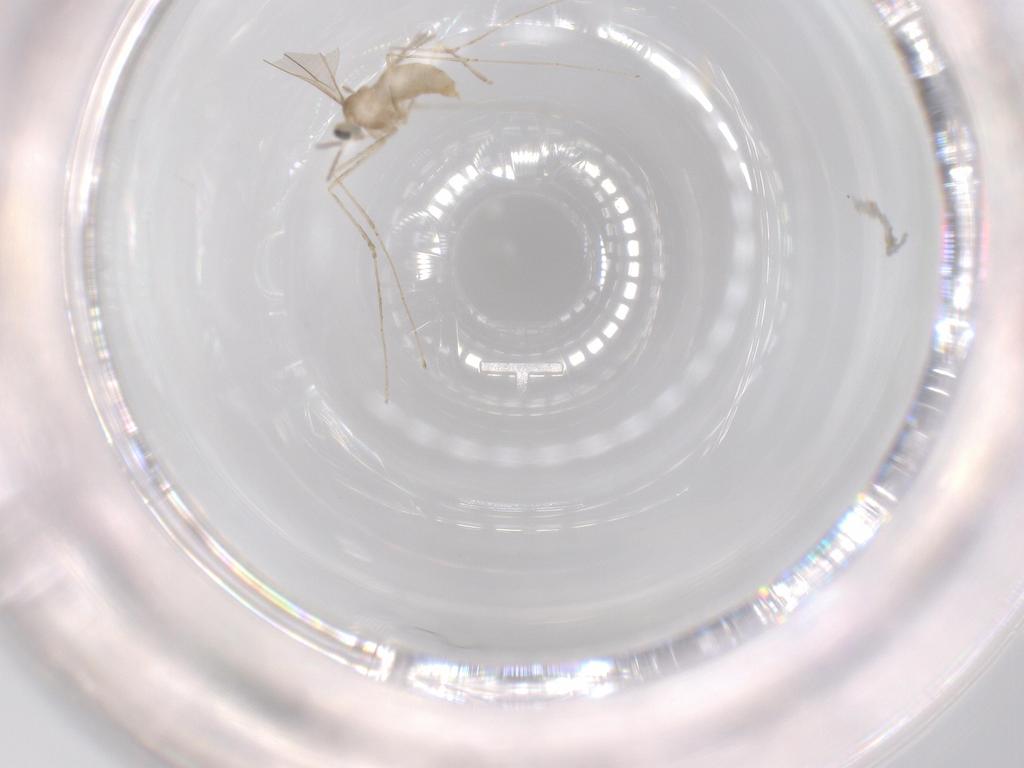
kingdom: Animalia
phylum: Arthropoda
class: Insecta
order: Diptera
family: Cecidomyiidae
